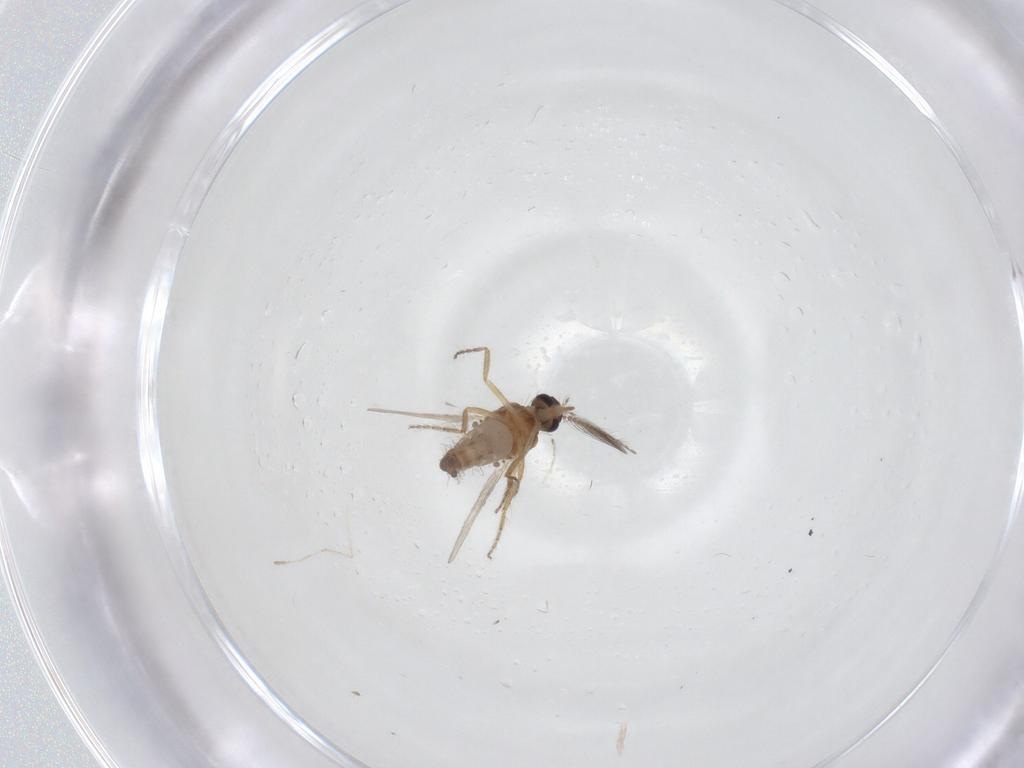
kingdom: Animalia
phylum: Arthropoda
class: Insecta
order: Diptera
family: Ceratopogonidae
